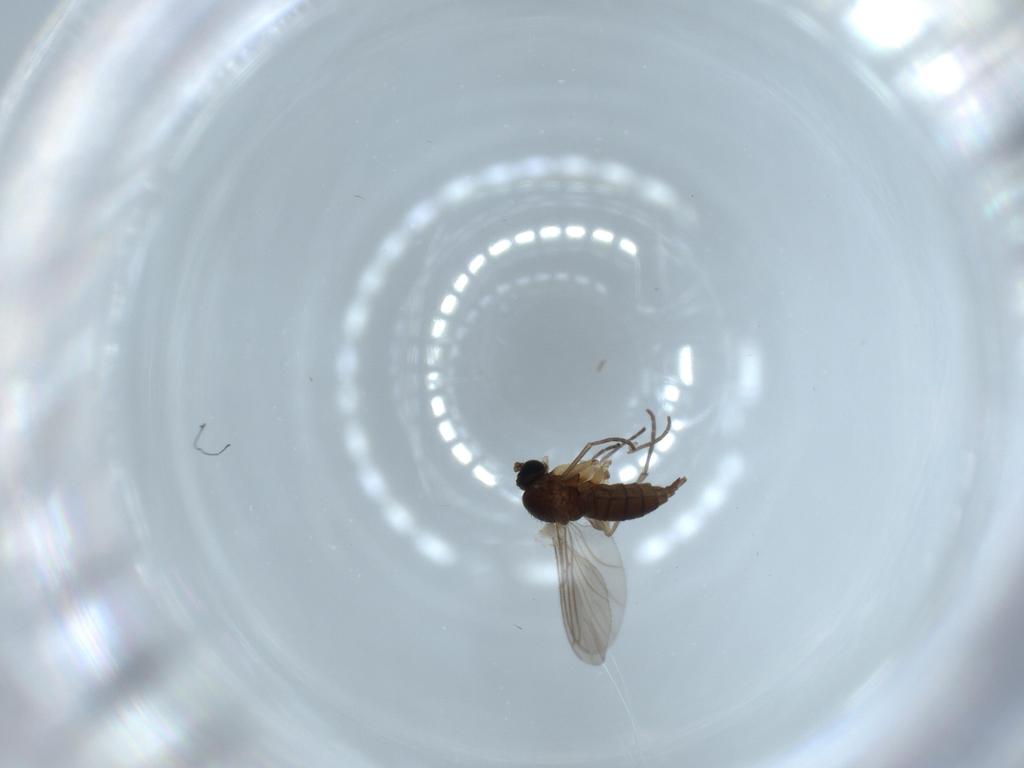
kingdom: Animalia
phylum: Arthropoda
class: Insecta
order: Diptera
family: Sciaridae
